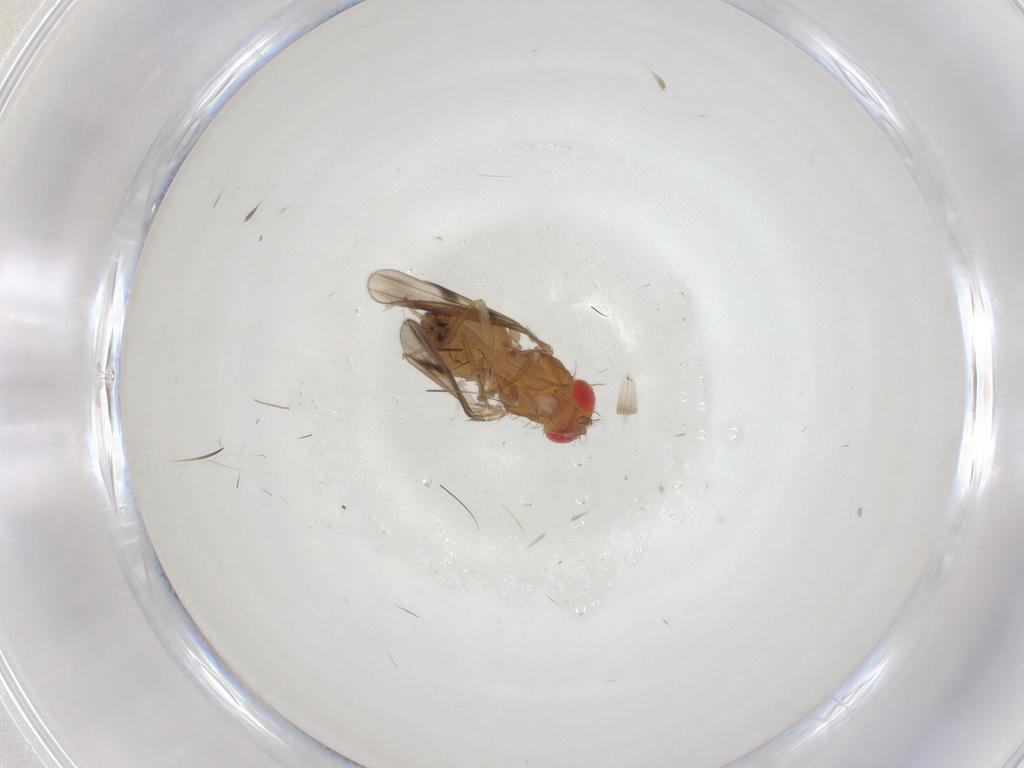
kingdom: Animalia
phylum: Arthropoda
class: Insecta
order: Diptera
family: Drosophilidae
